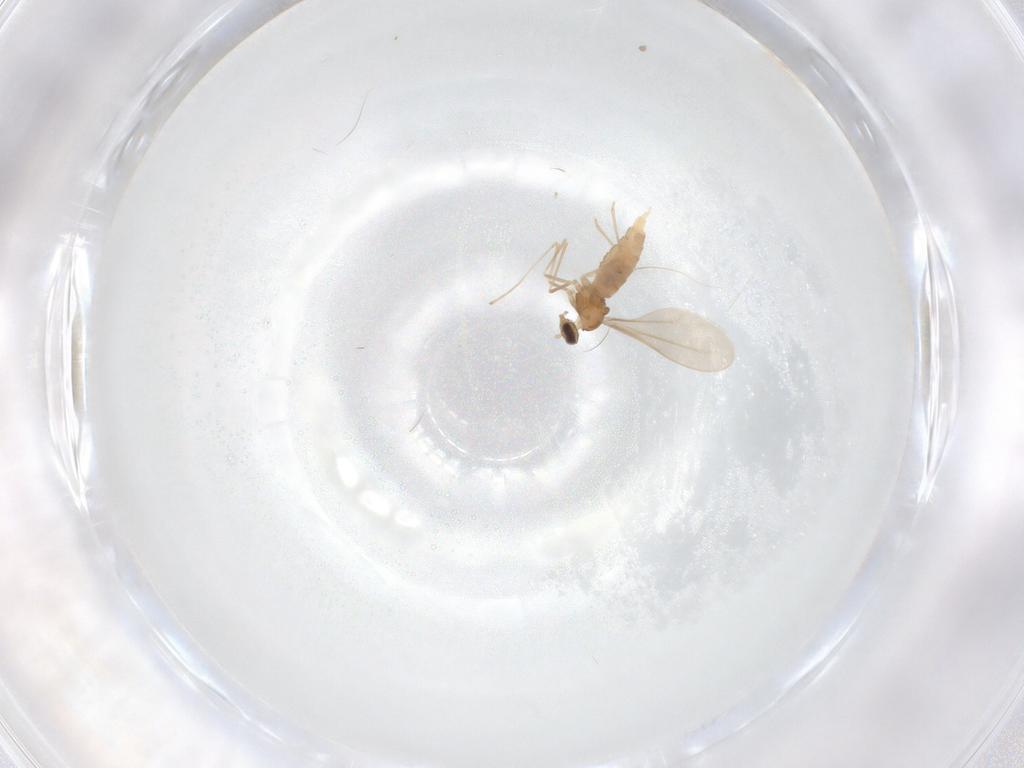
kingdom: Animalia
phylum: Arthropoda
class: Insecta
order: Diptera
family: Cecidomyiidae
